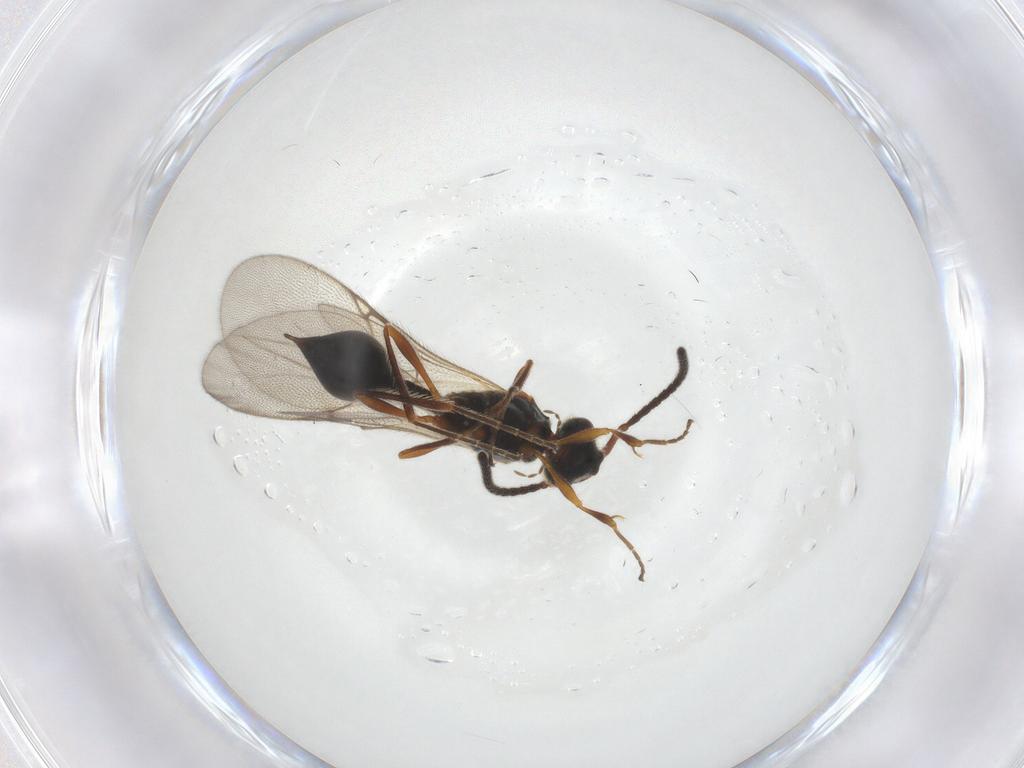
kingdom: Animalia
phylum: Arthropoda
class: Insecta
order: Hymenoptera
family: Diapriidae
